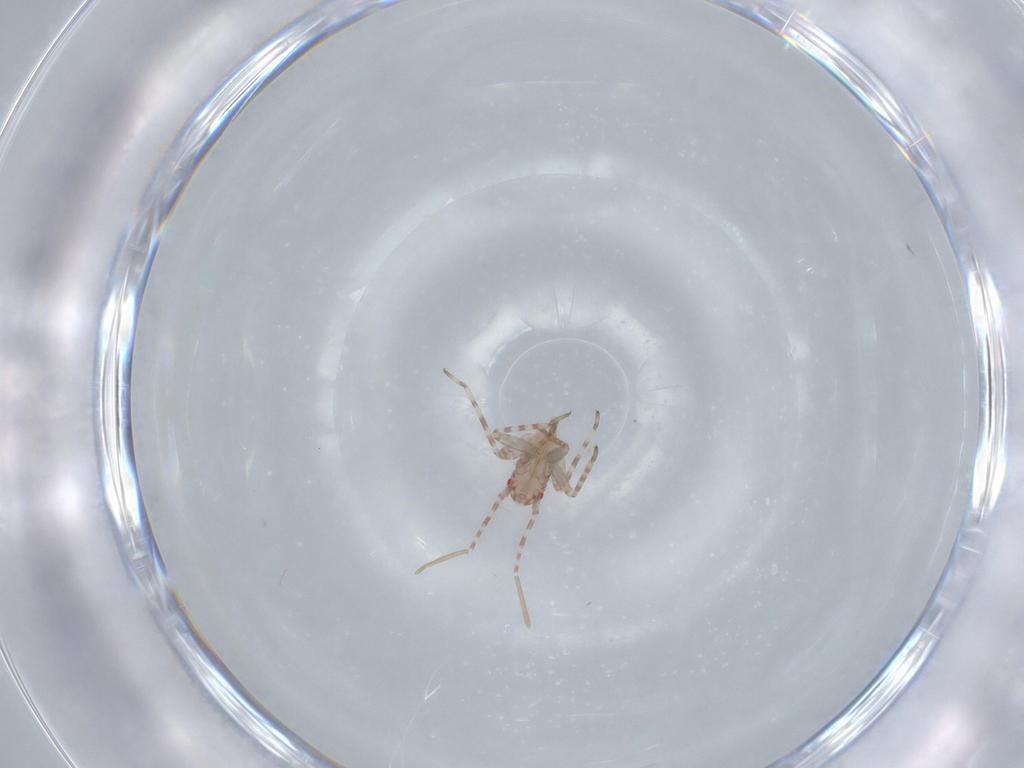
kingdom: Animalia
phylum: Arthropoda
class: Insecta
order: Hemiptera
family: Miridae
